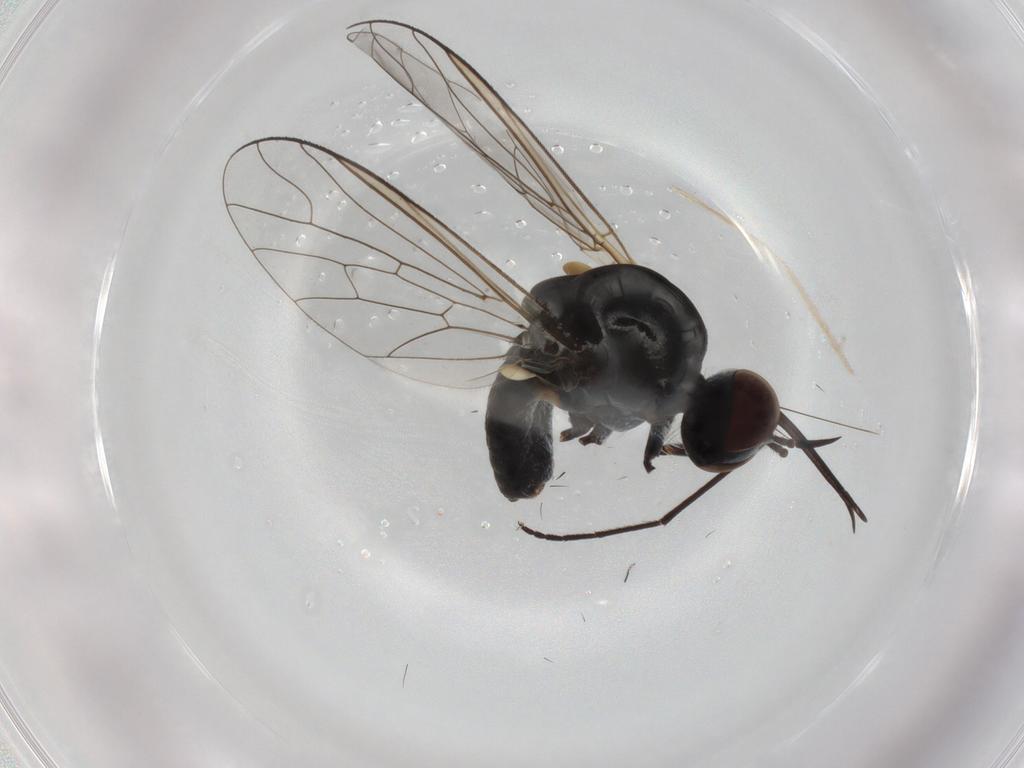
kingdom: Animalia
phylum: Arthropoda
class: Insecta
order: Diptera
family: Bombyliidae
